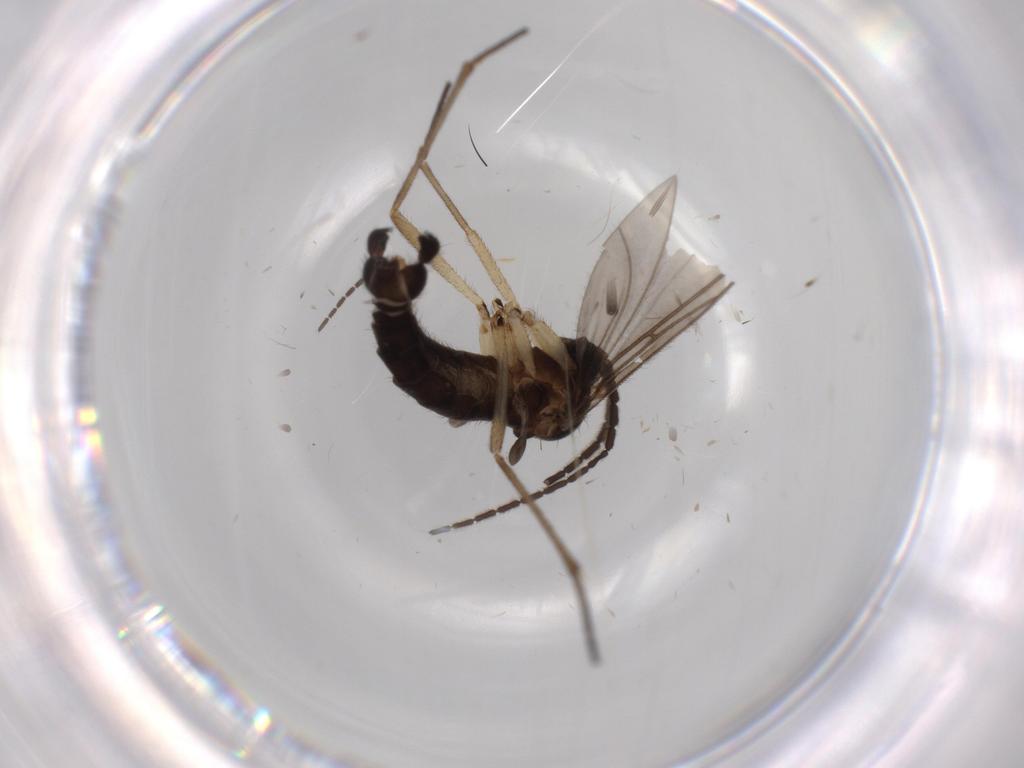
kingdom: Animalia
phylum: Arthropoda
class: Insecta
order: Diptera
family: Sciaridae
